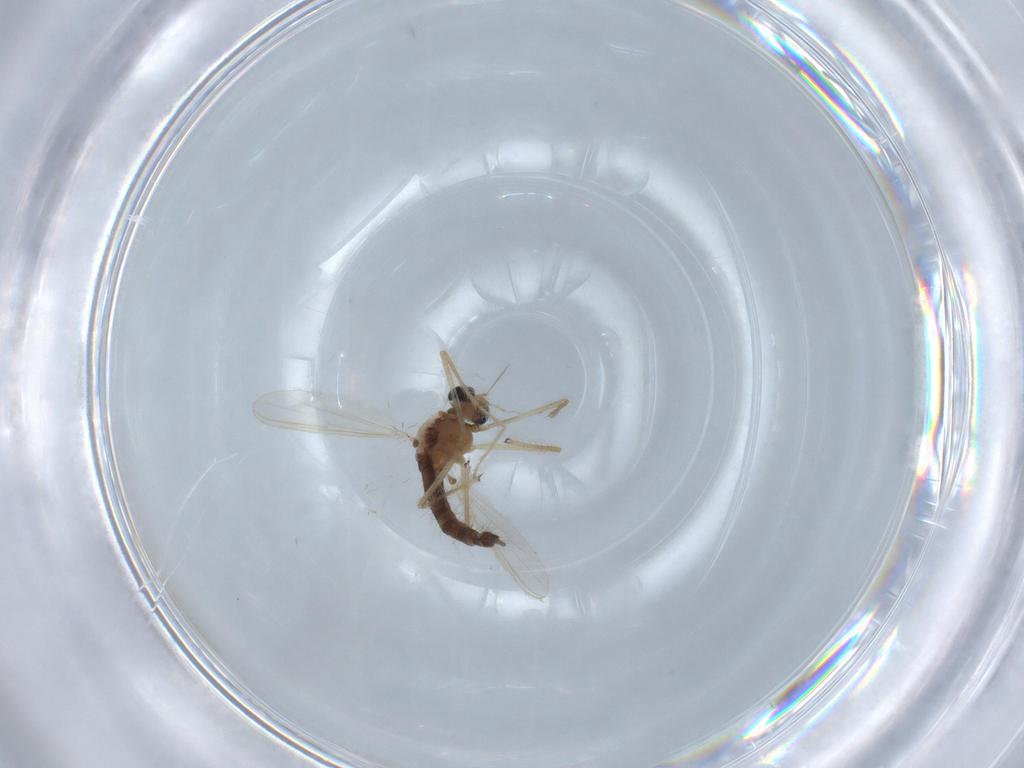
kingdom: Animalia
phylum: Arthropoda
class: Insecta
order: Diptera
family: Chironomidae
